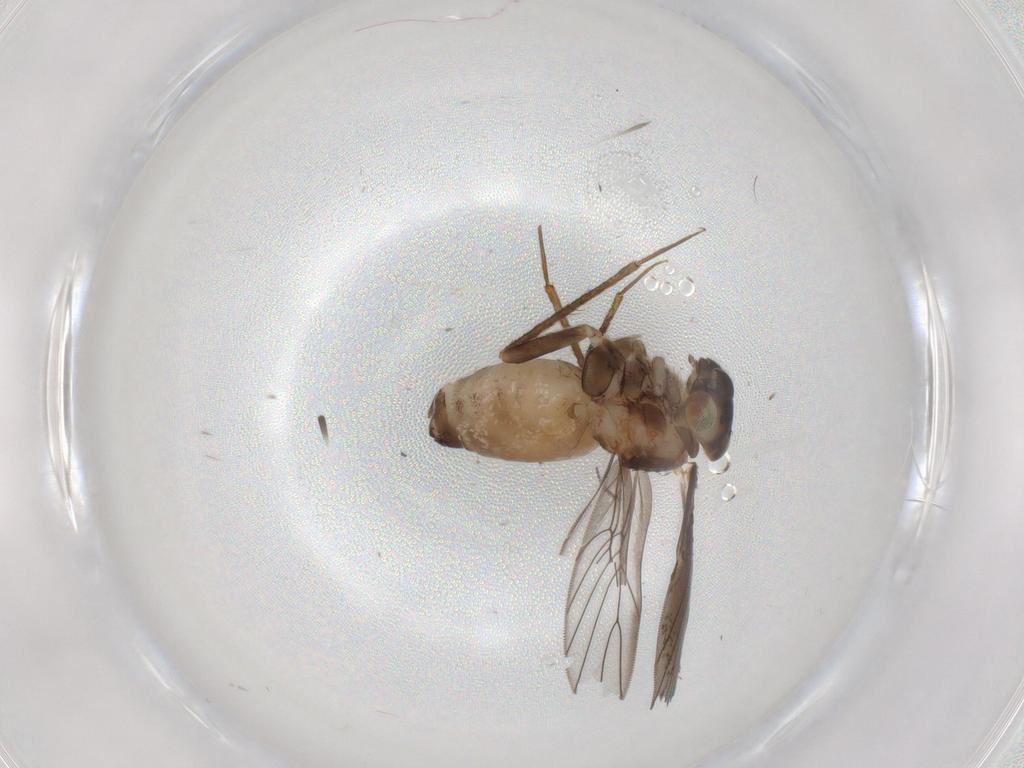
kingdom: Animalia
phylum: Arthropoda
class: Insecta
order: Psocodea
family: Lepidopsocidae
